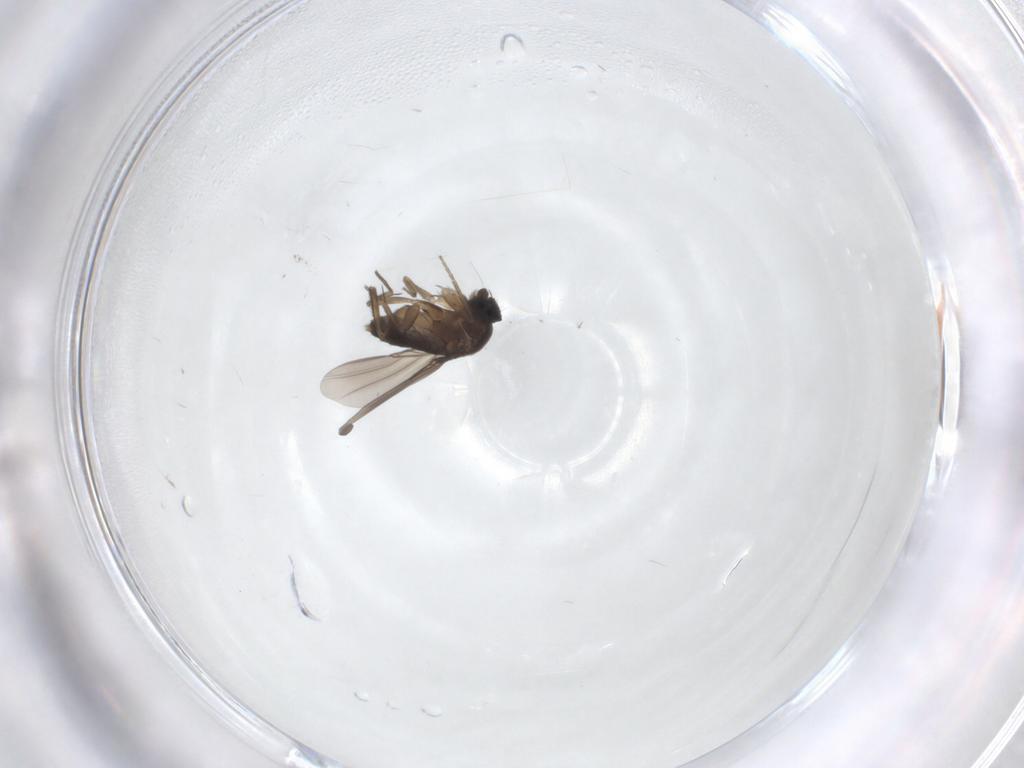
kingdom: Animalia
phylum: Arthropoda
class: Insecta
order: Diptera
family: Phoridae
